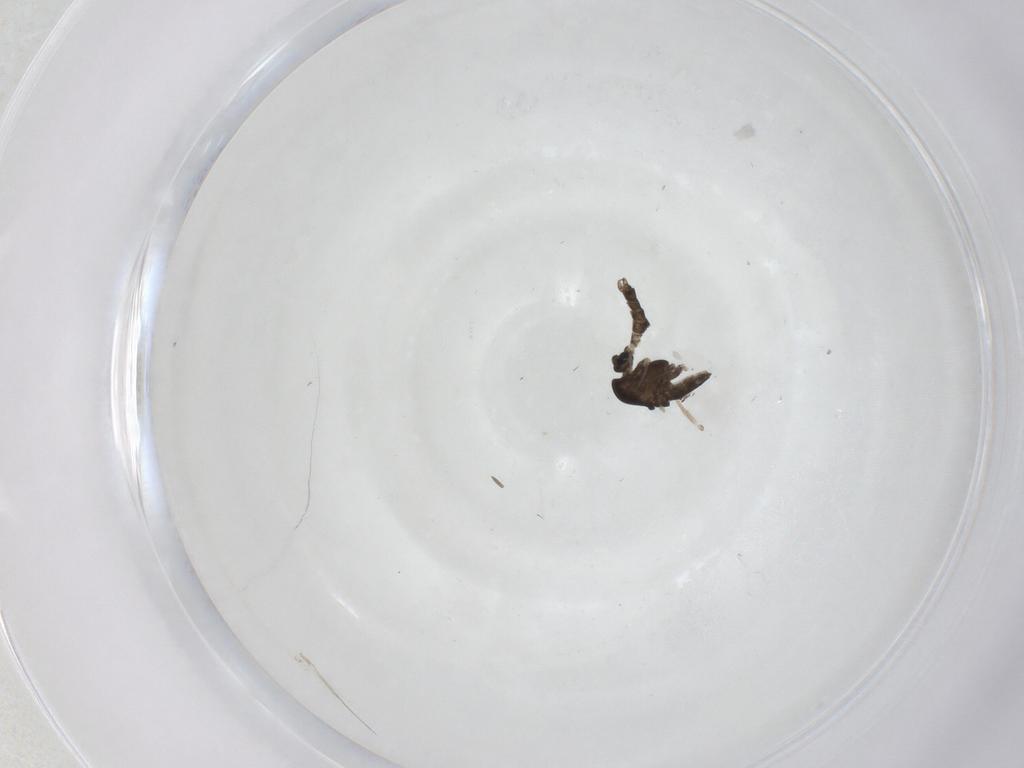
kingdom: Animalia
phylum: Arthropoda
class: Insecta
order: Diptera
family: Chironomidae
